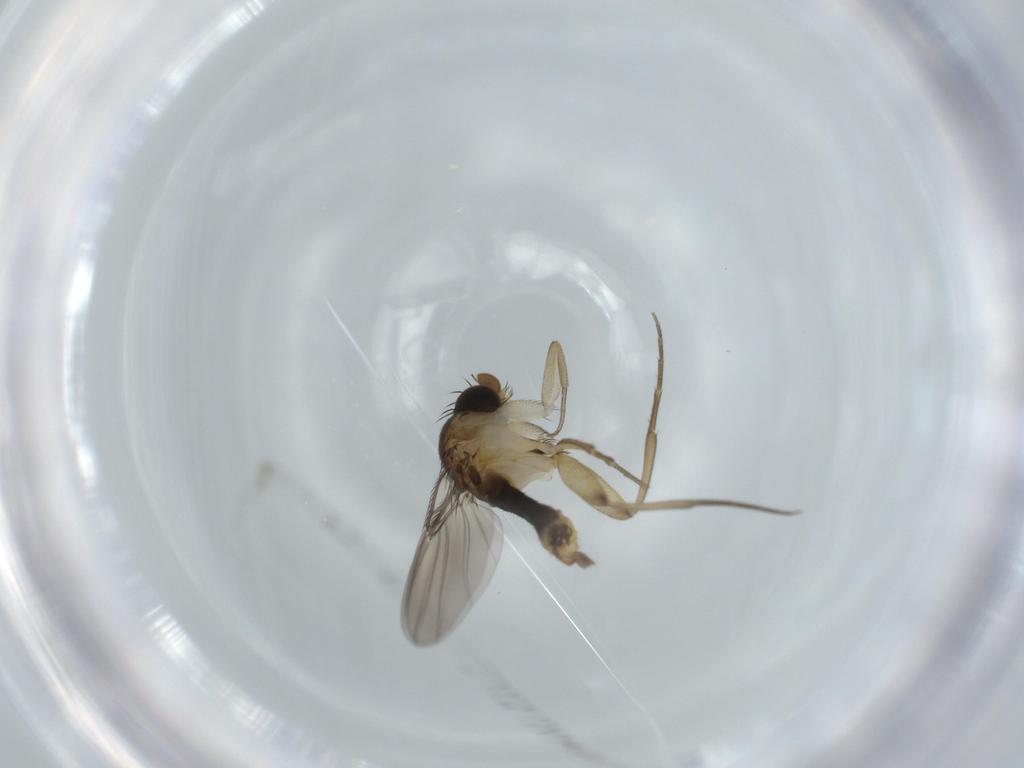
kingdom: Animalia
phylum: Arthropoda
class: Insecta
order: Diptera
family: Phoridae
